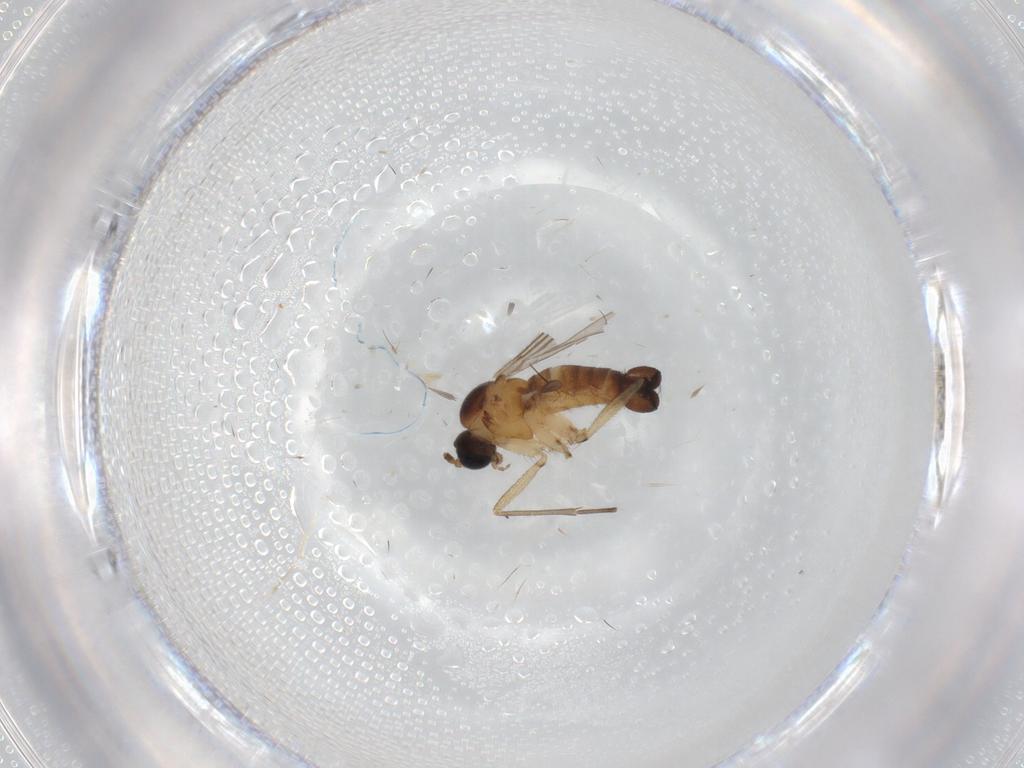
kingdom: Animalia
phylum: Arthropoda
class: Insecta
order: Diptera
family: Sciaridae
